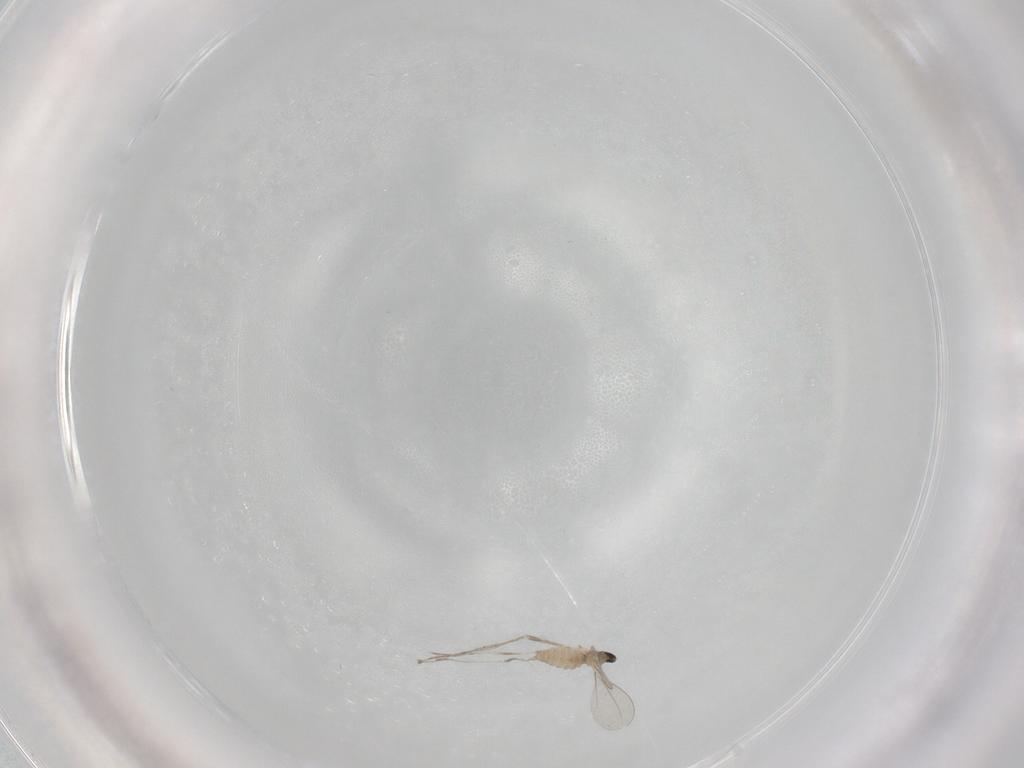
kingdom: Animalia
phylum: Arthropoda
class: Insecta
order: Diptera
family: Cecidomyiidae
